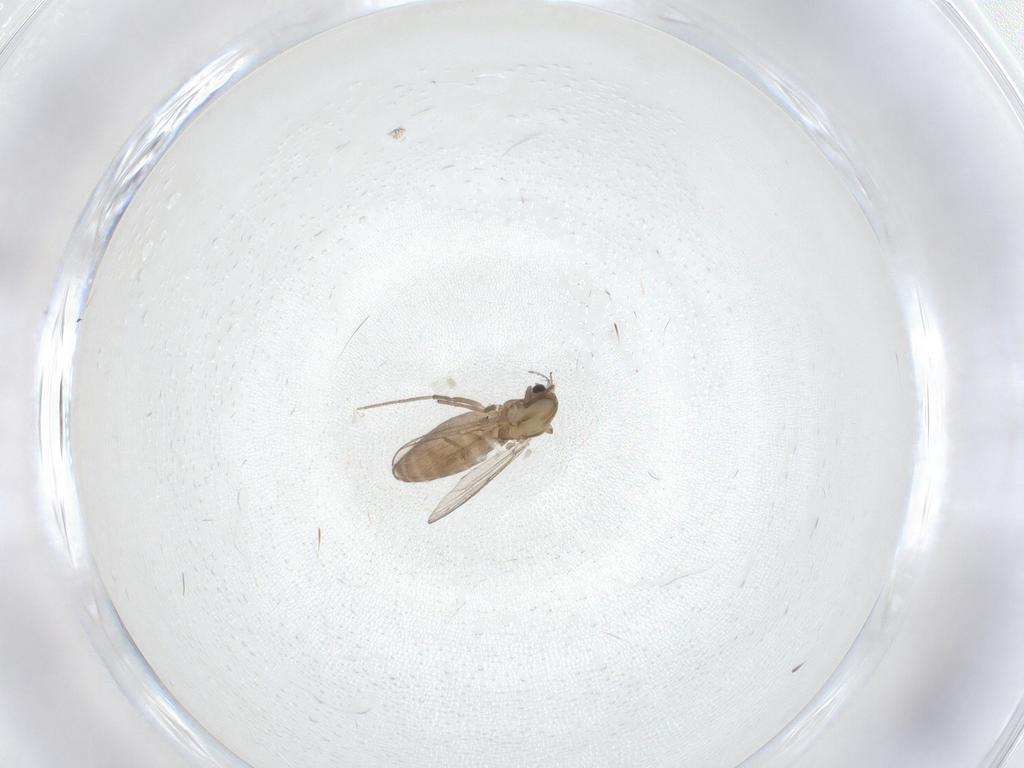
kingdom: Animalia
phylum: Arthropoda
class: Insecta
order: Diptera
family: Chironomidae
